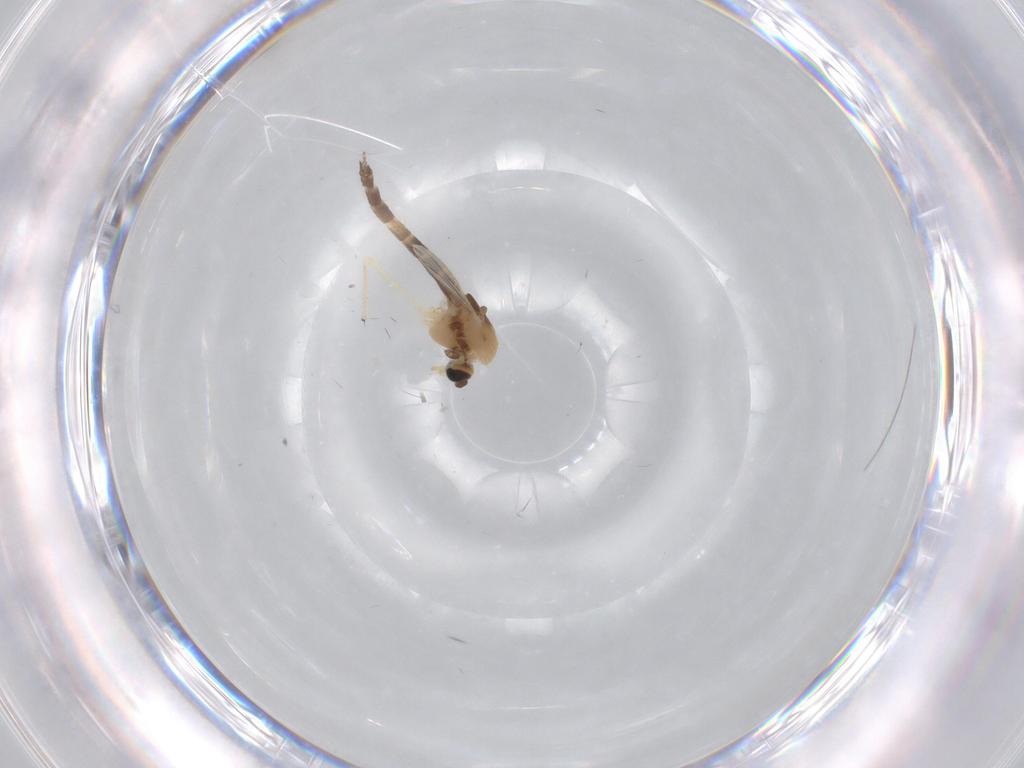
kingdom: Animalia
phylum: Arthropoda
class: Insecta
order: Diptera
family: Chironomidae
